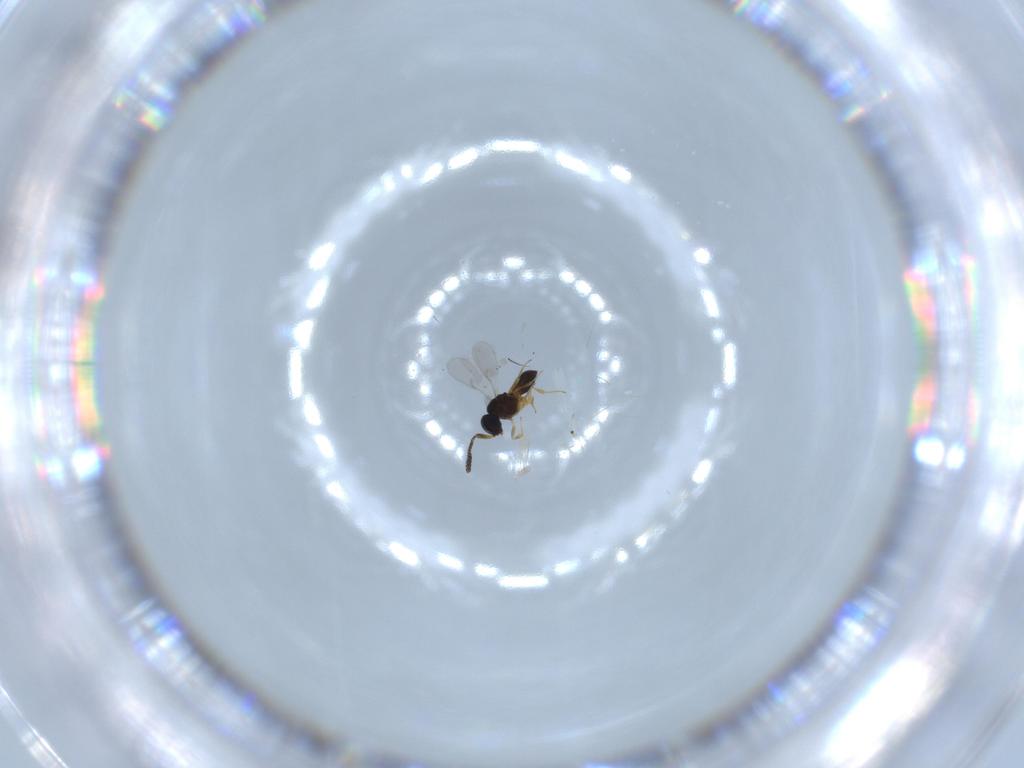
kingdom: Animalia
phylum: Arthropoda
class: Insecta
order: Hymenoptera
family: Scelionidae
